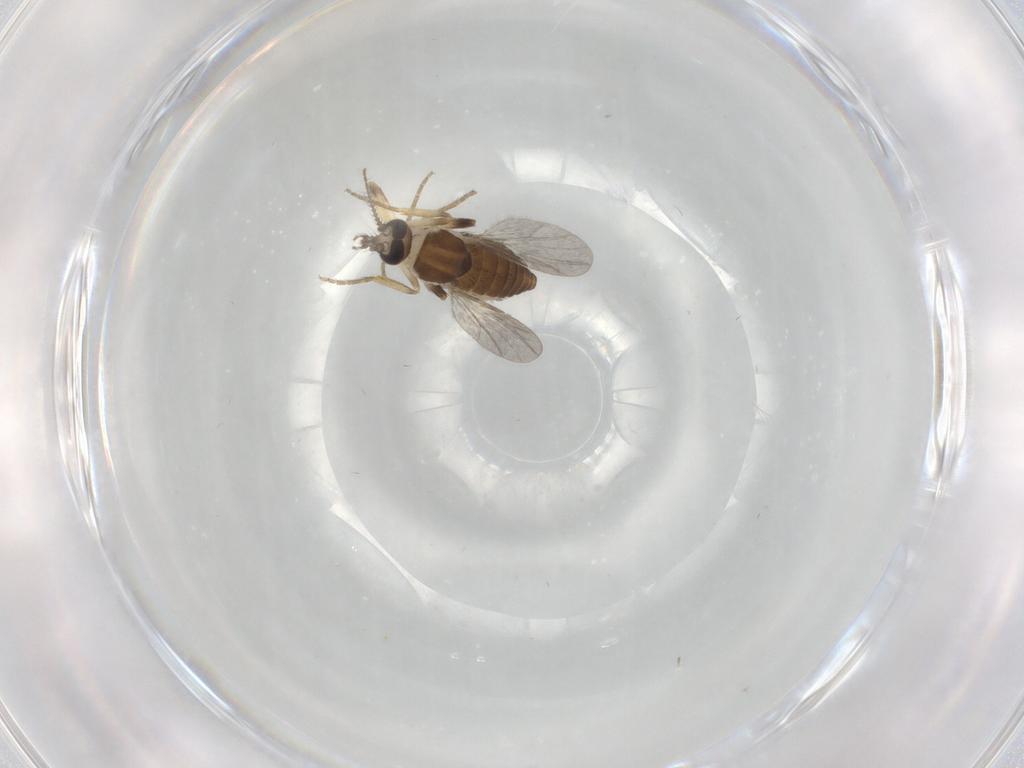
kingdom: Animalia
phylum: Arthropoda
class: Insecta
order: Diptera
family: Ceratopogonidae
